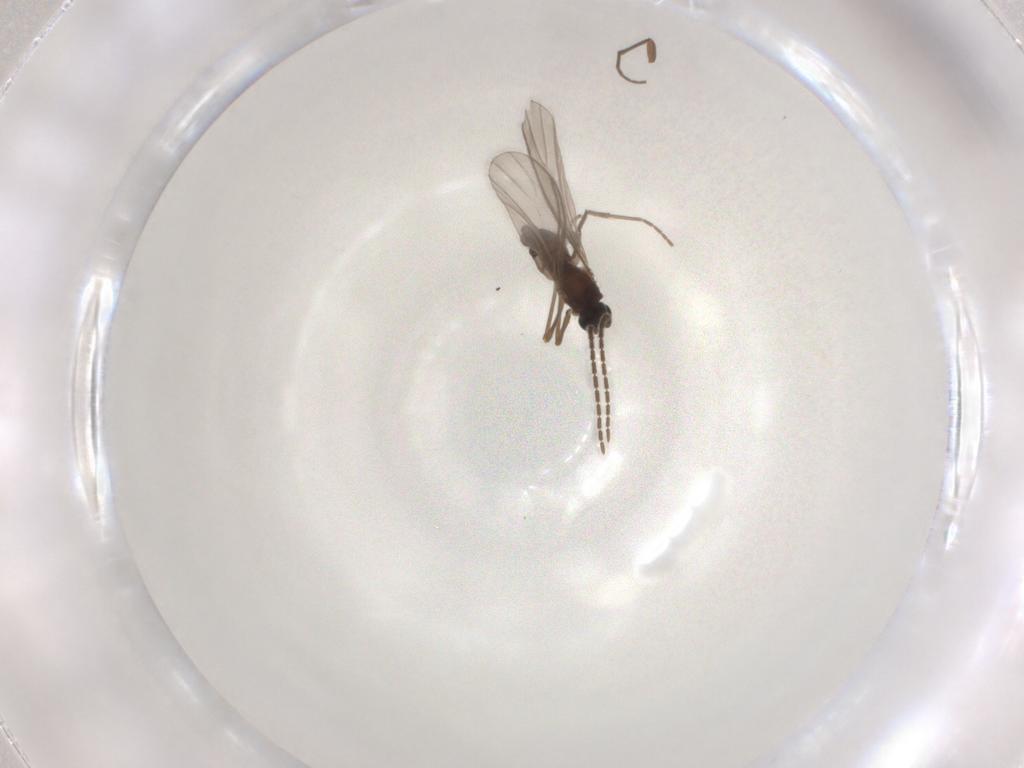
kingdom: Animalia
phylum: Arthropoda
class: Insecta
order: Diptera
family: Sciaridae
